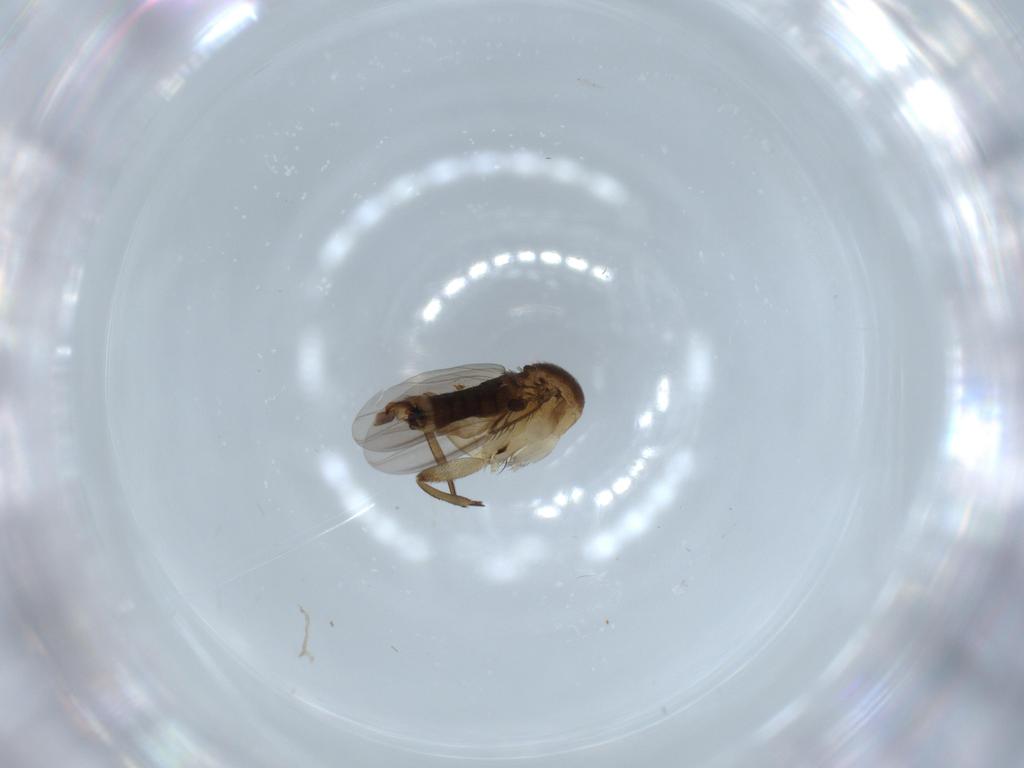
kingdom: Animalia
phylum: Arthropoda
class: Insecta
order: Diptera
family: Phoridae
